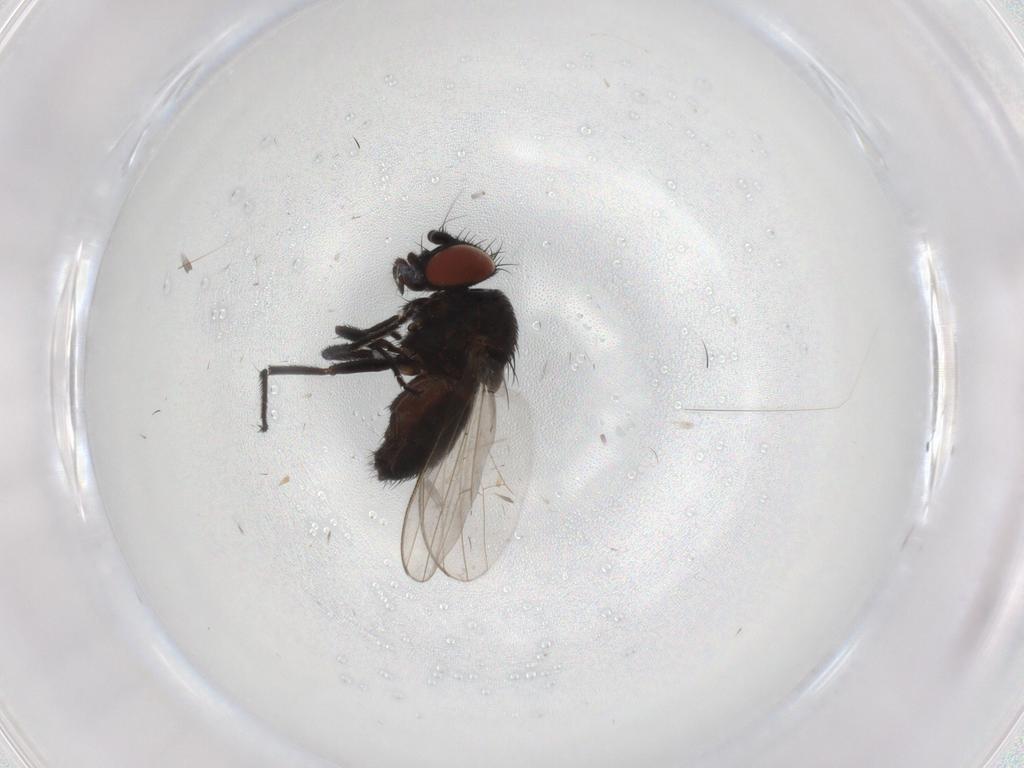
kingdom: Animalia
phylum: Arthropoda
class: Insecta
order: Diptera
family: Milichiidae
